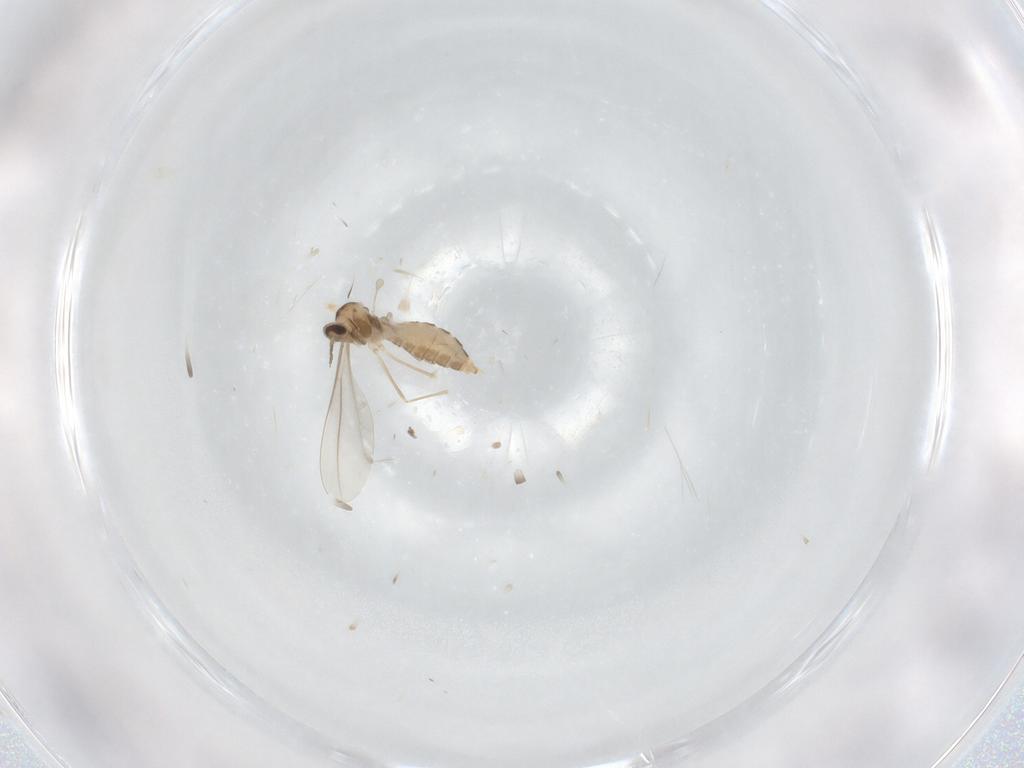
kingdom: Animalia
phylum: Arthropoda
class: Insecta
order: Diptera
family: Cecidomyiidae
